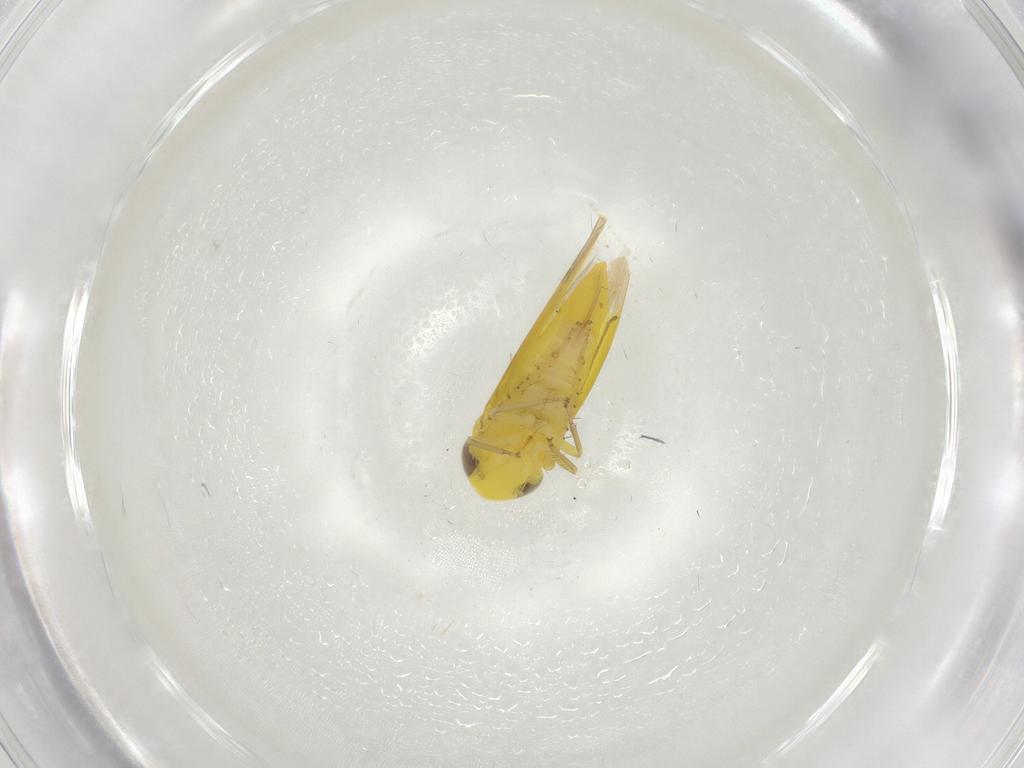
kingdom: Animalia
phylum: Arthropoda
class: Insecta
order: Hemiptera
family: Cicadellidae
